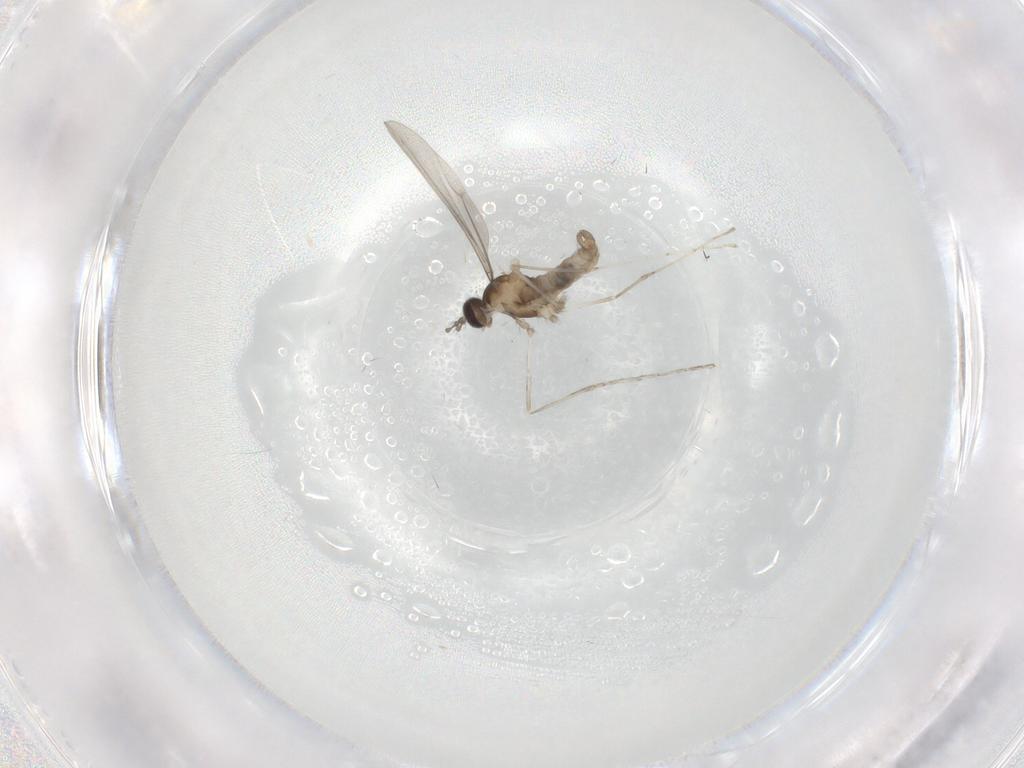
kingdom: Animalia
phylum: Arthropoda
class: Insecta
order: Diptera
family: Cecidomyiidae
